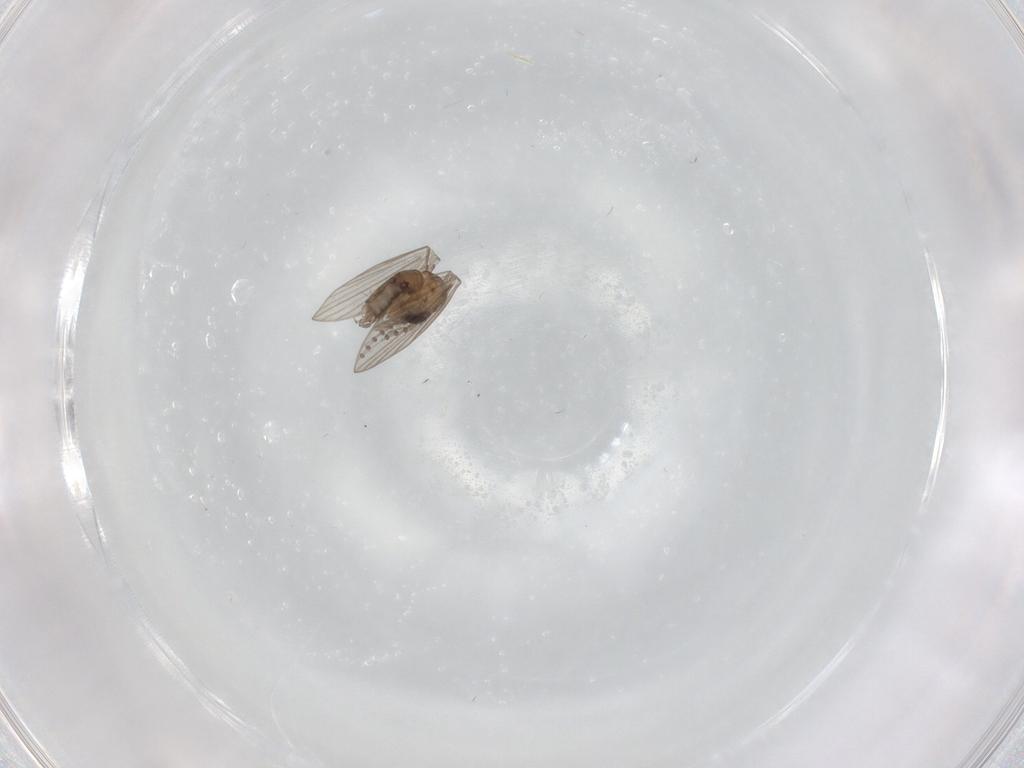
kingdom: Animalia
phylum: Arthropoda
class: Insecta
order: Diptera
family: Psychodidae
